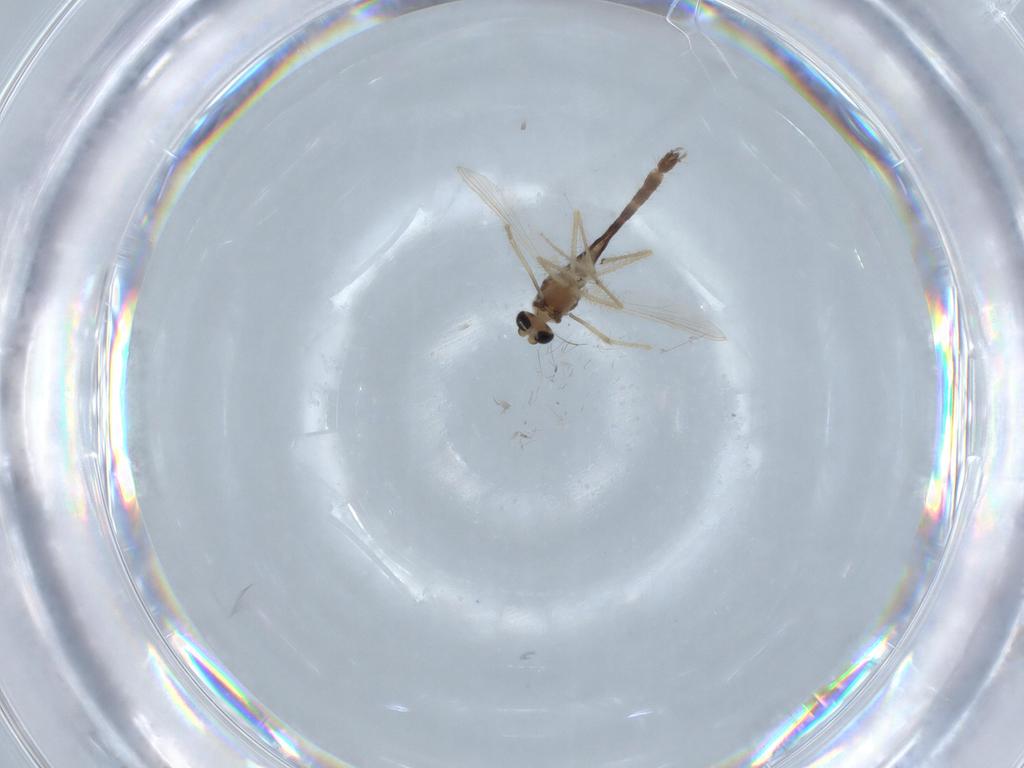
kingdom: Animalia
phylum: Arthropoda
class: Insecta
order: Diptera
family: Chironomidae
